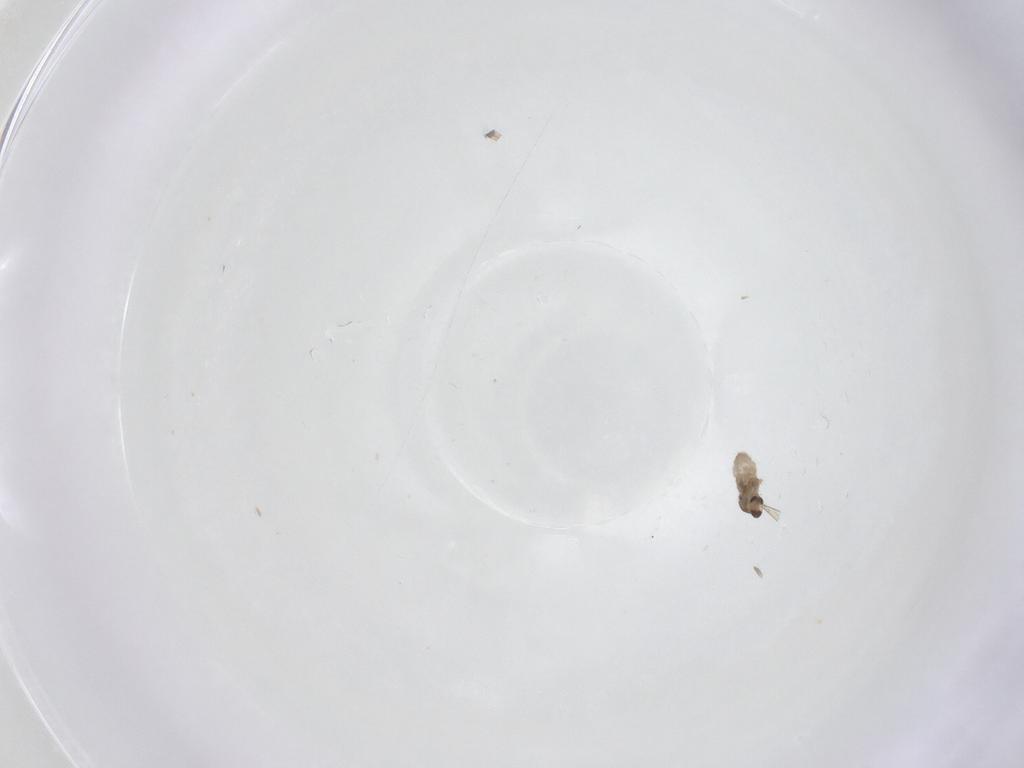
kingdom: Animalia
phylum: Arthropoda
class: Insecta
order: Diptera
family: Cecidomyiidae
